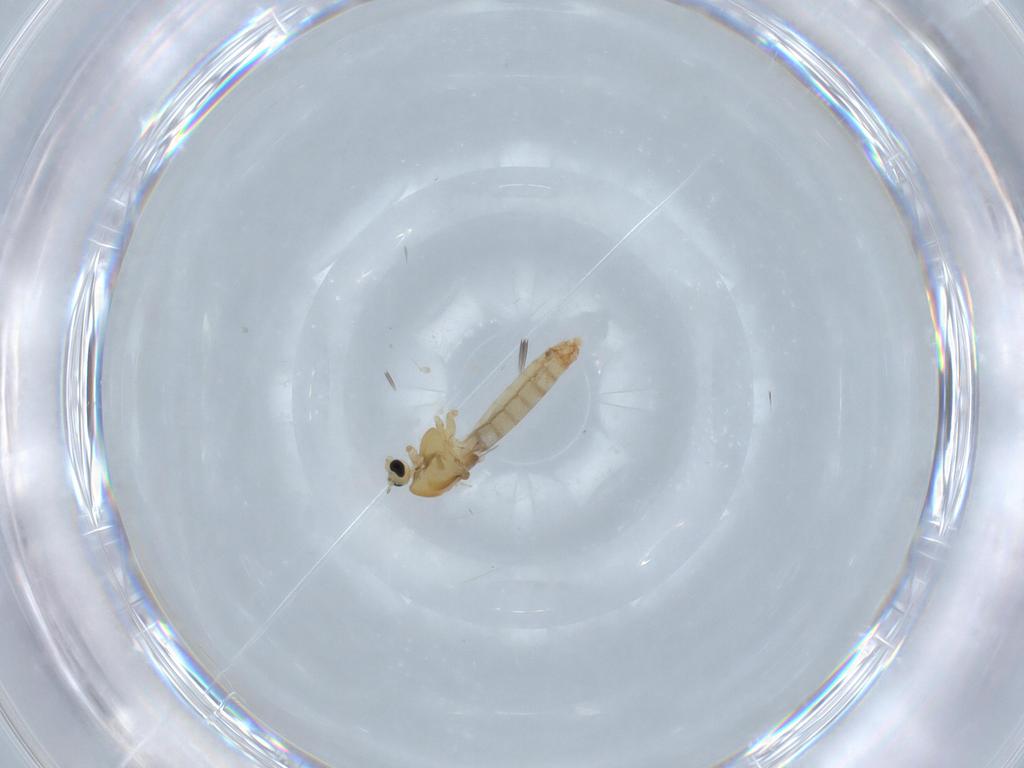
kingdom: Animalia
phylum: Arthropoda
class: Insecta
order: Diptera
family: Chironomidae
